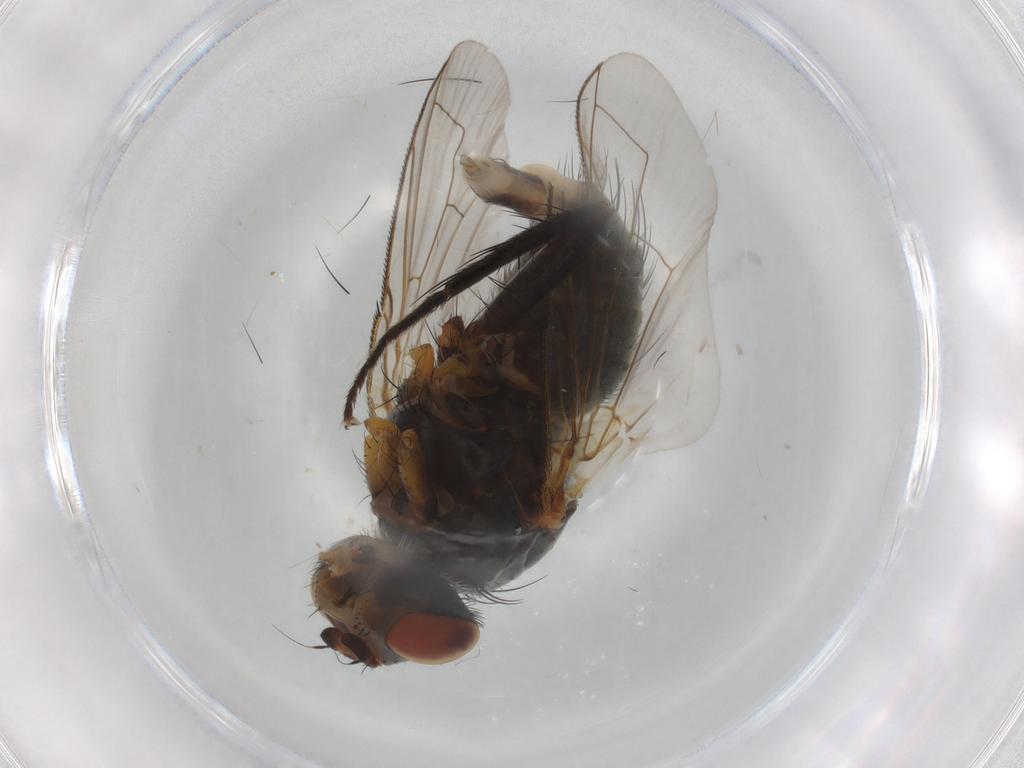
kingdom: Animalia
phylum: Arthropoda
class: Insecta
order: Diptera
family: Tachinidae
